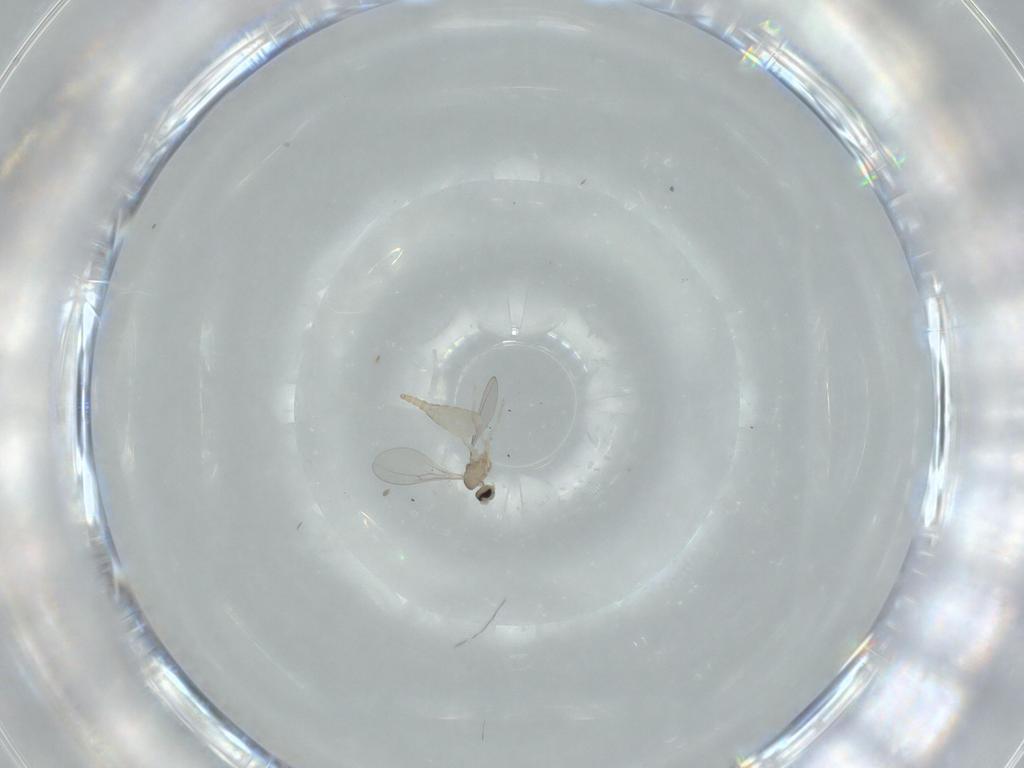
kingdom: Animalia
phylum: Arthropoda
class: Insecta
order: Diptera
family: Cecidomyiidae
